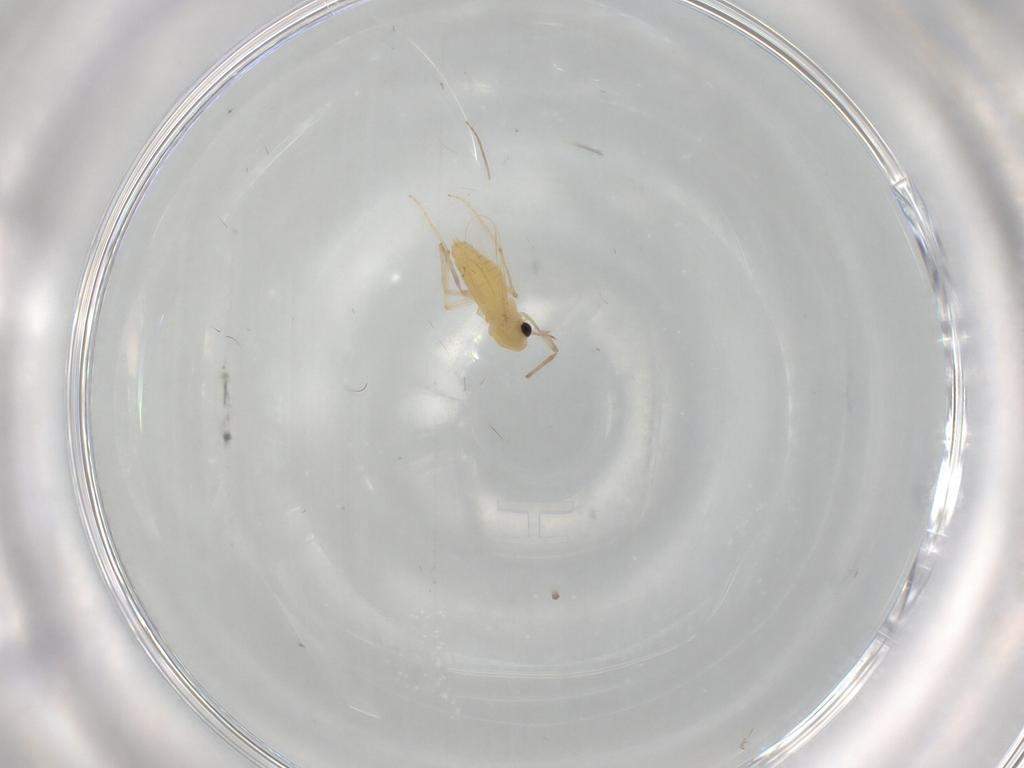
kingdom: Animalia
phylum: Arthropoda
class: Insecta
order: Diptera
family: Chironomidae
